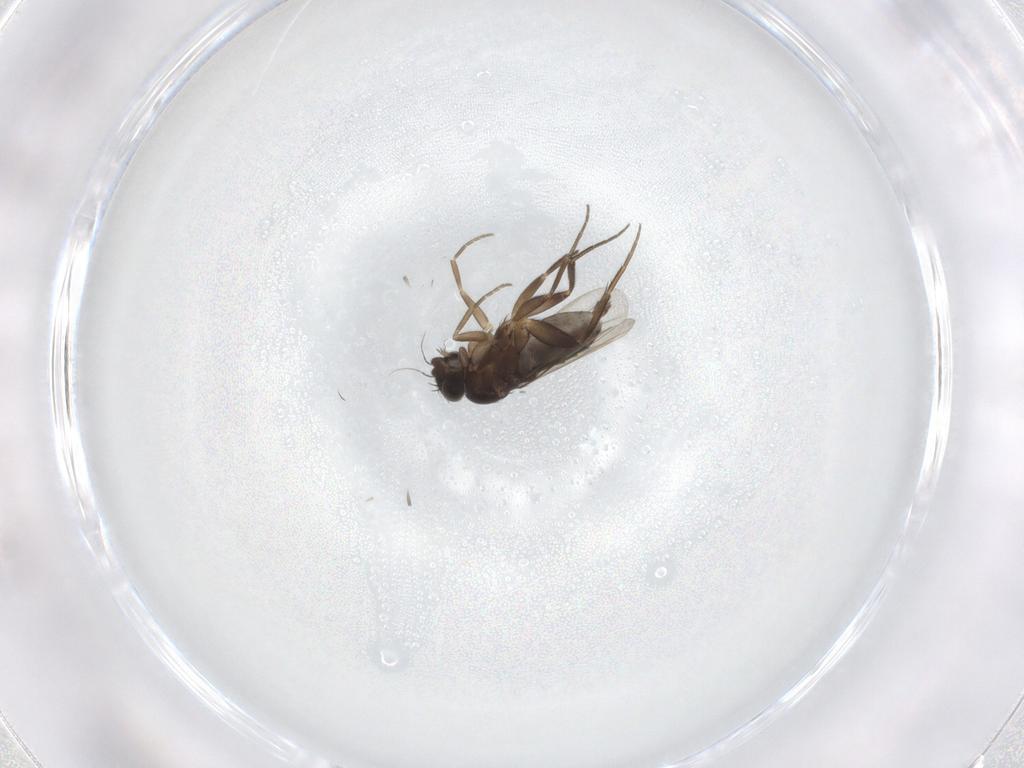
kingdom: Animalia
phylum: Arthropoda
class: Insecta
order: Diptera
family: Phoridae
